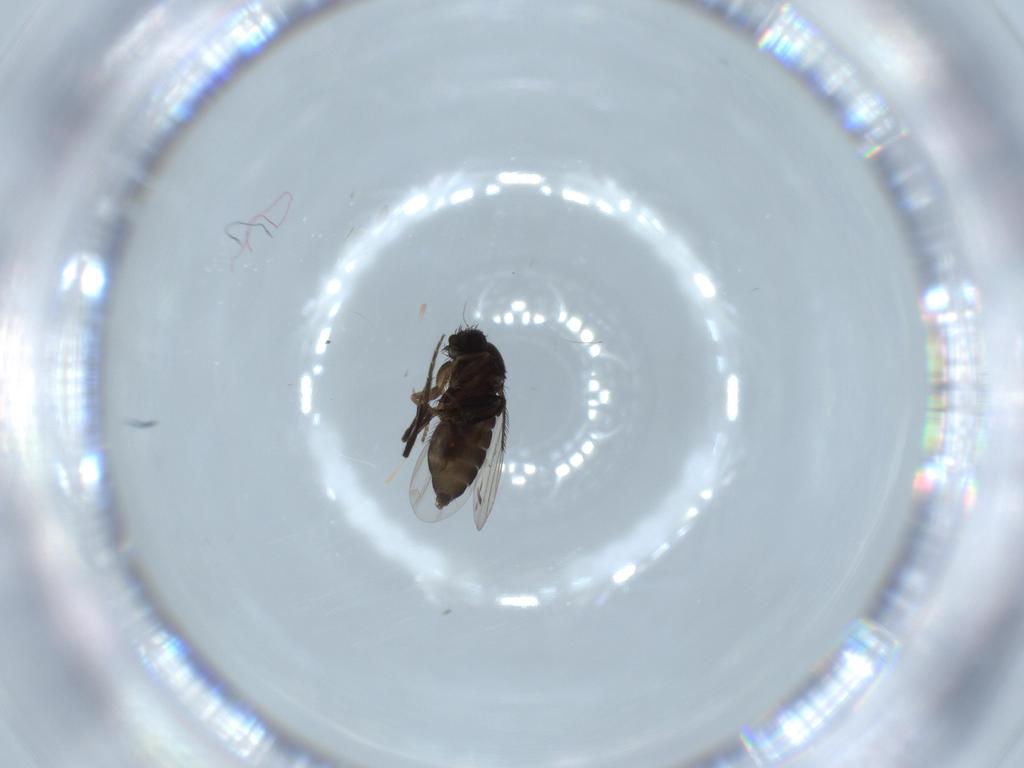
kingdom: Animalia
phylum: Arthropoda
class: Insecta
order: Diptera
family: Phoridae
